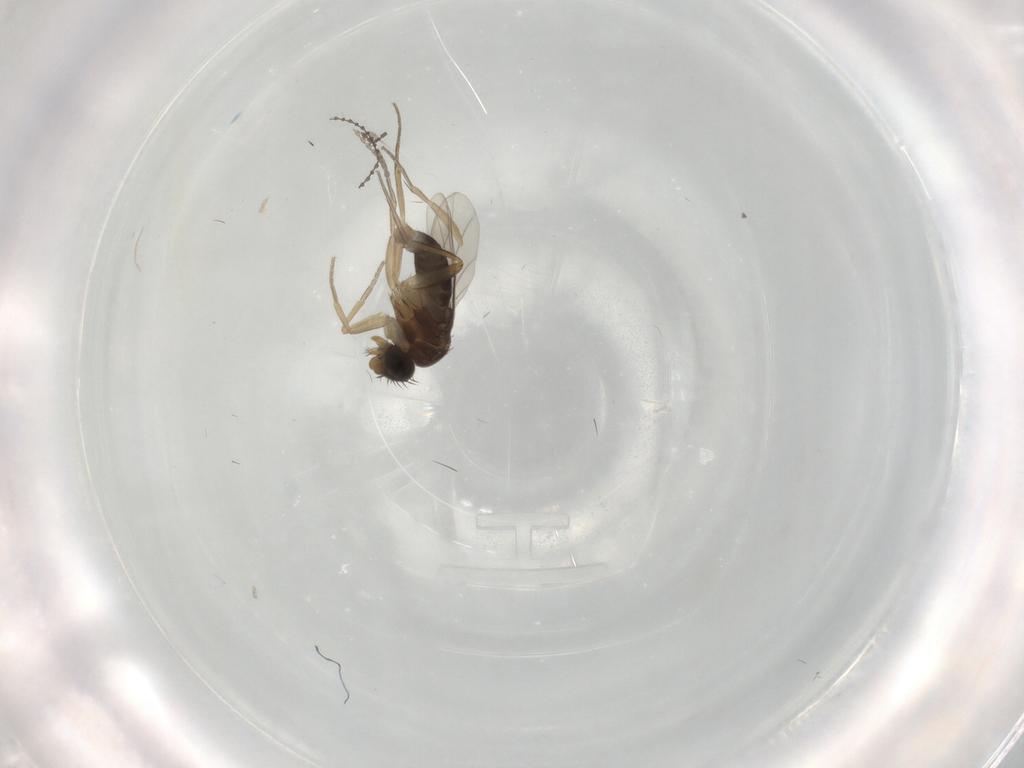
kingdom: Animalia
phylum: Arthropoda
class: Insecta
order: Diptera
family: Phoridae
